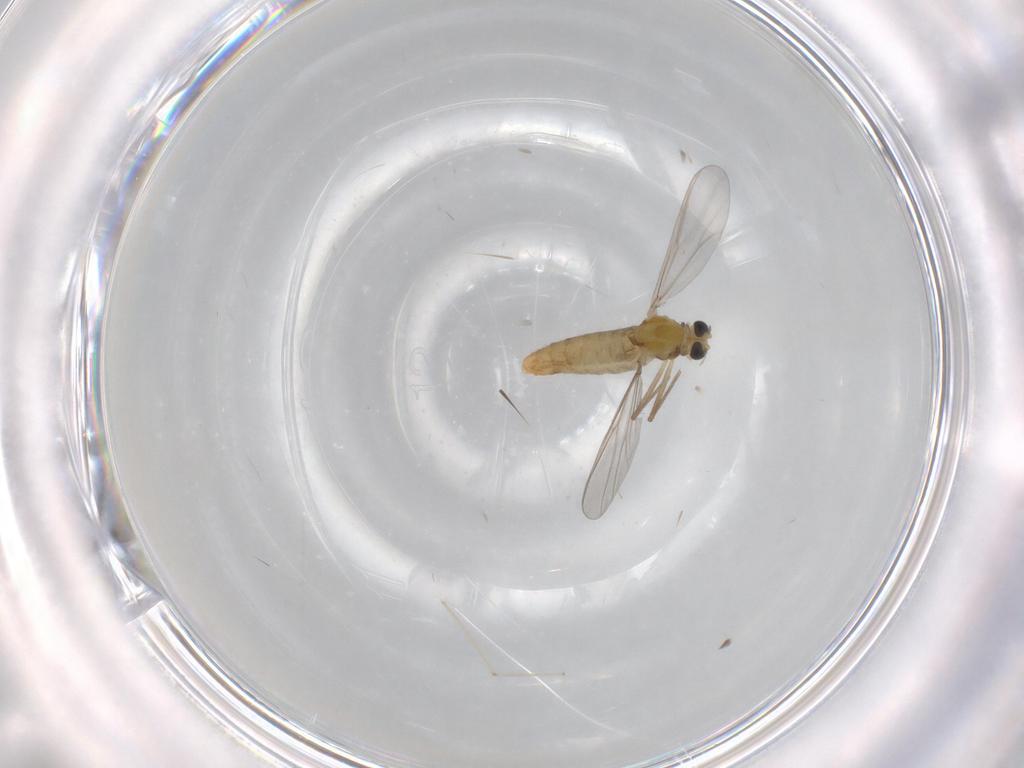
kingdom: Animalia
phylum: Arthropoda
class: Insecta
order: Diptera
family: Chironomidae
